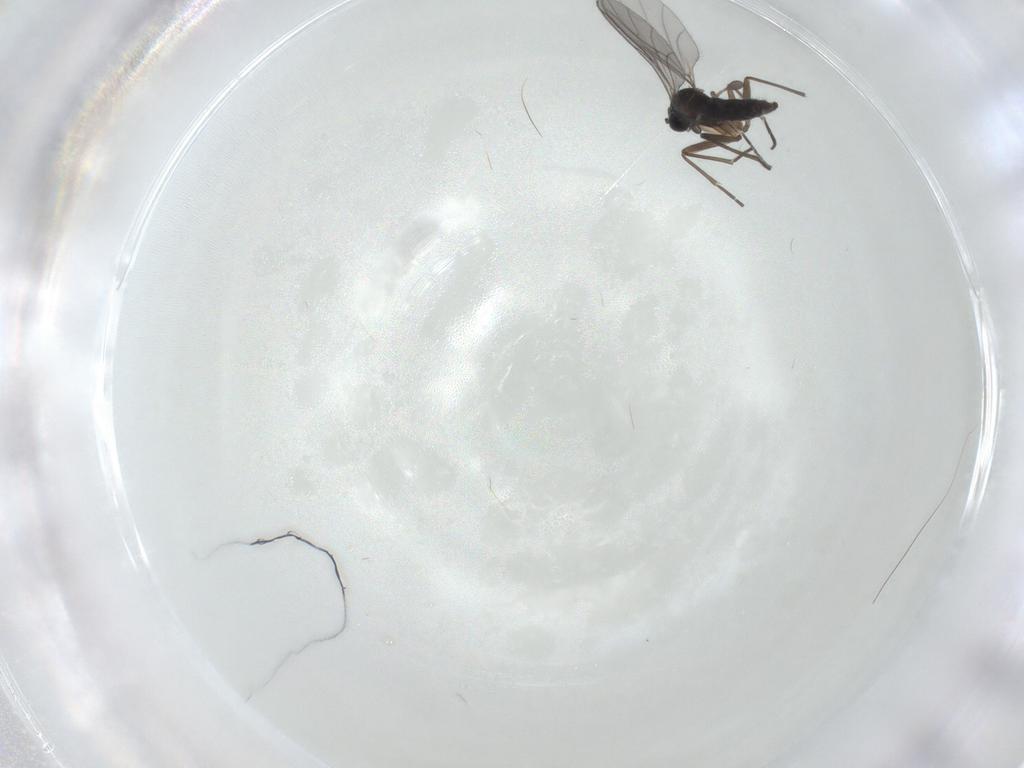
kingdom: Animalia
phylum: Arthropoda
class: Insecta
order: Diptera
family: Sciaridae
